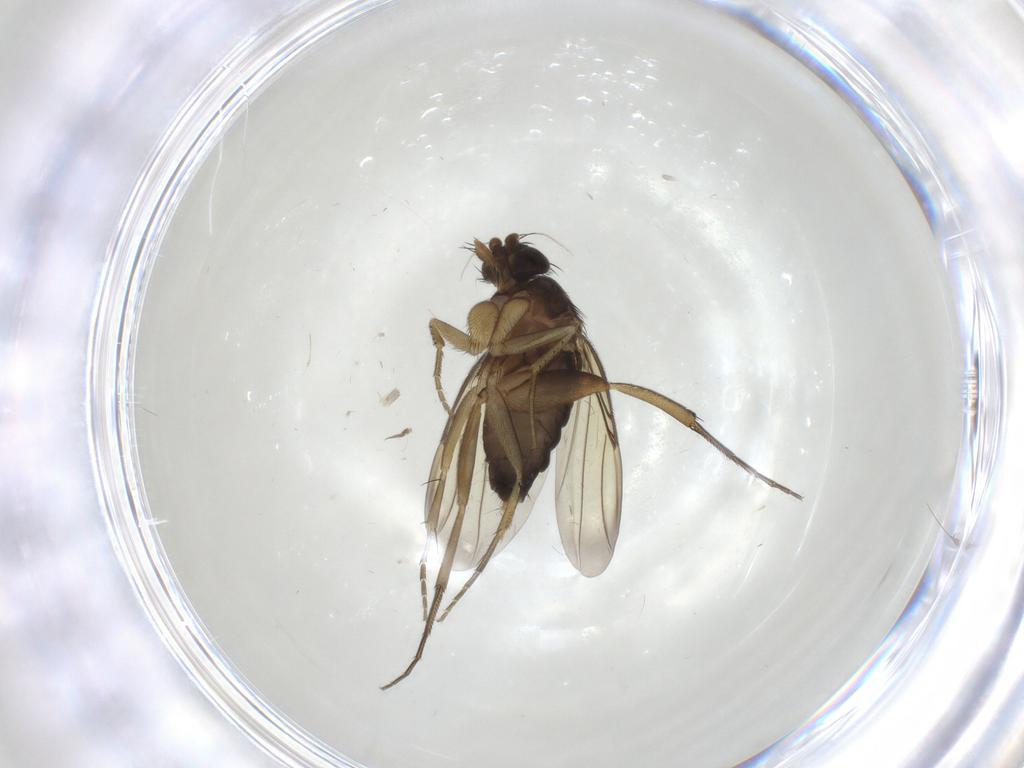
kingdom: Animalia
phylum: Arthropoda
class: Insecta
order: Diptera
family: Phoridae
